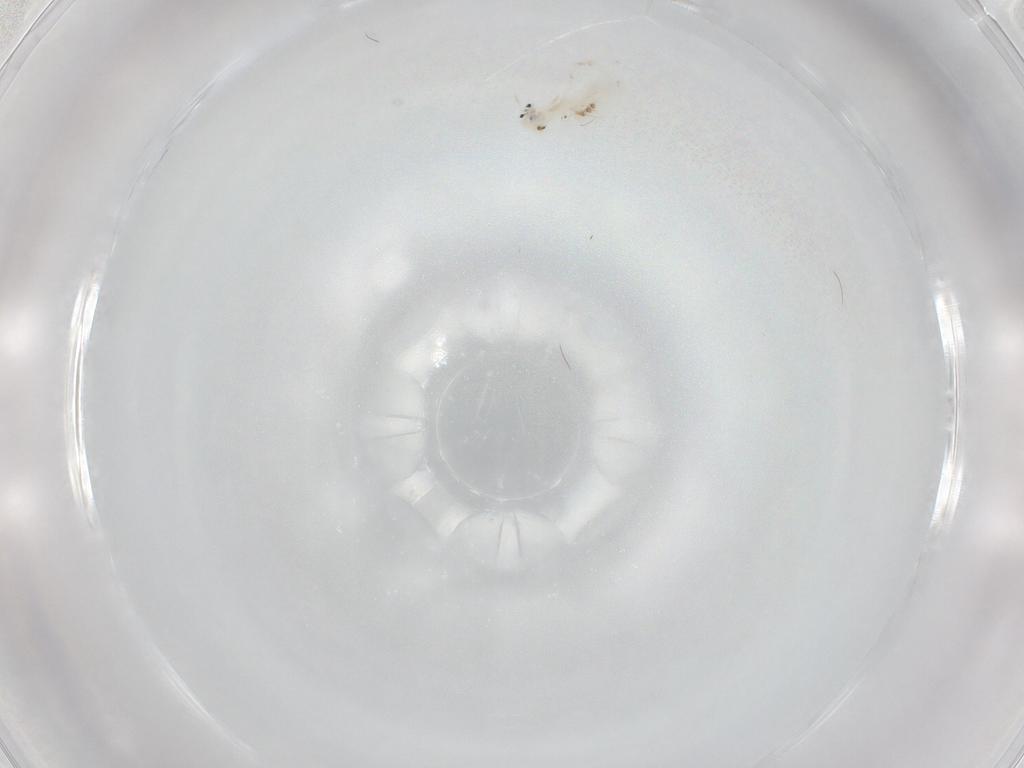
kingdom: Animalia
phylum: Arthropoda
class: Collembola
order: Entomobryomorpha
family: Entomobryidae
